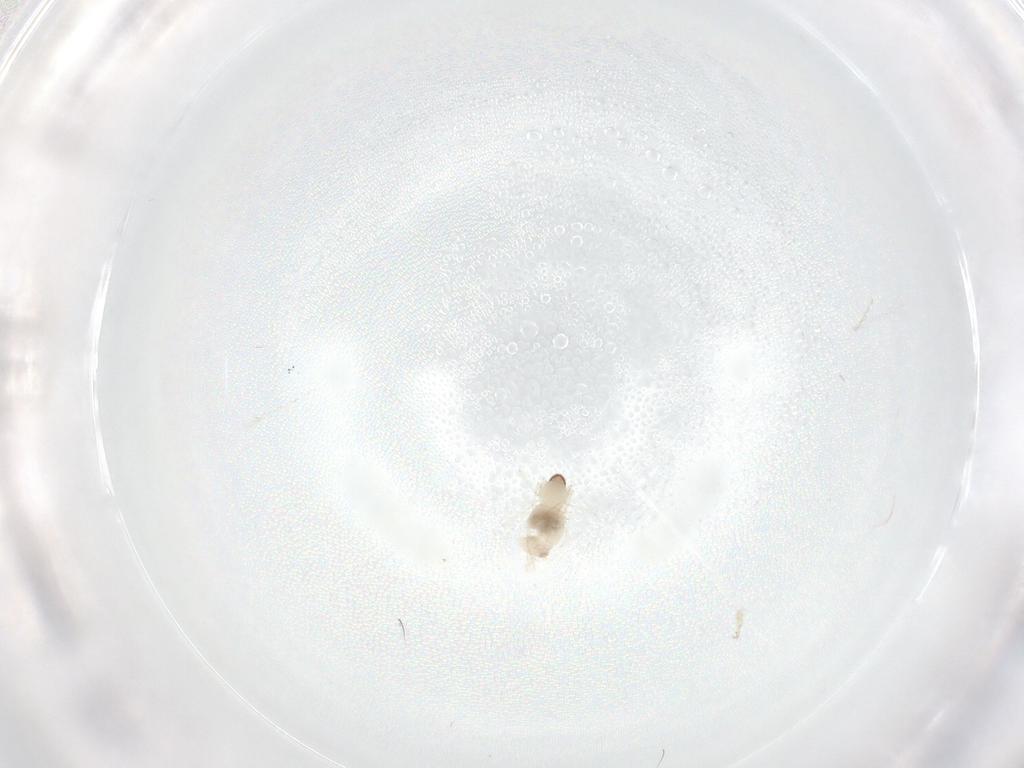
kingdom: Animalia
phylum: Arthropoda
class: Insecta
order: Diptera
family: Cecidomyiidae
